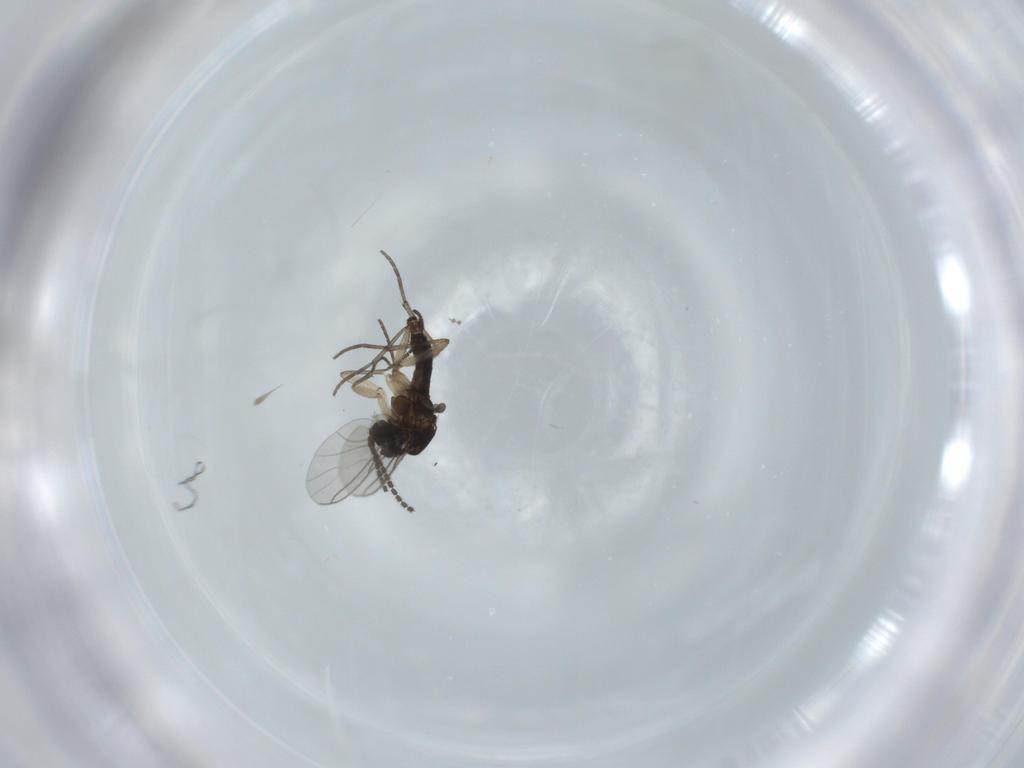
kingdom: Animalia
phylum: Arthropoda
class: Insecta
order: Diptera
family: Sciaridae
